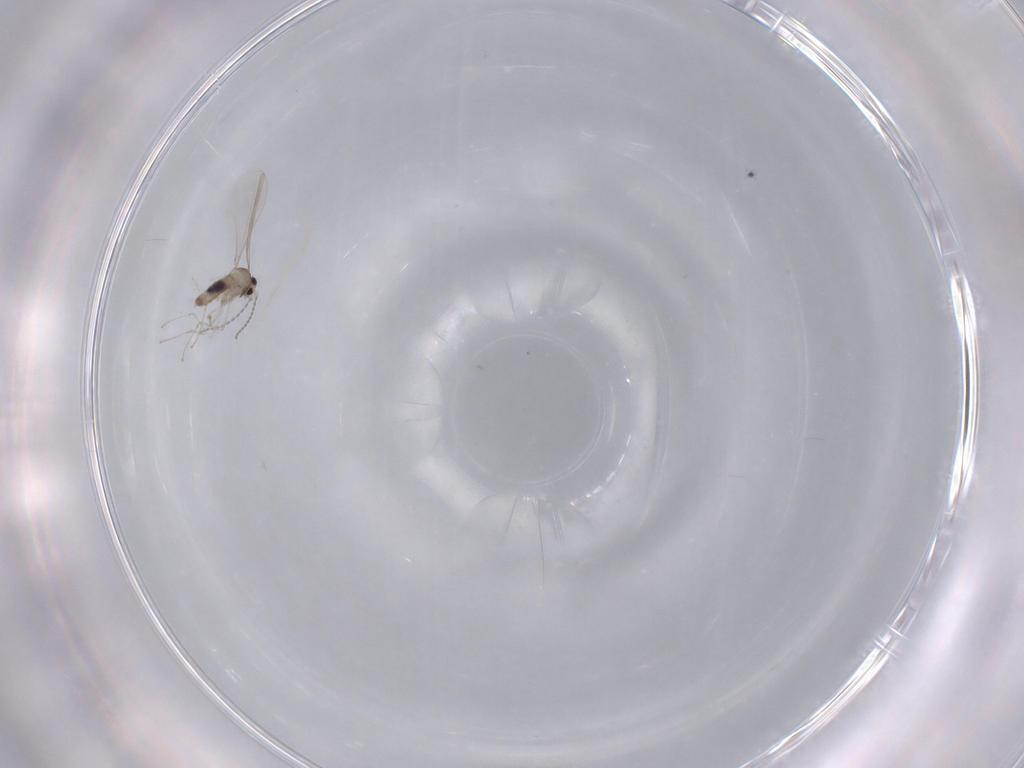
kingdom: Animalia
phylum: Arthropoda
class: Insecta
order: Diptera
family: Cecidomyiidae
